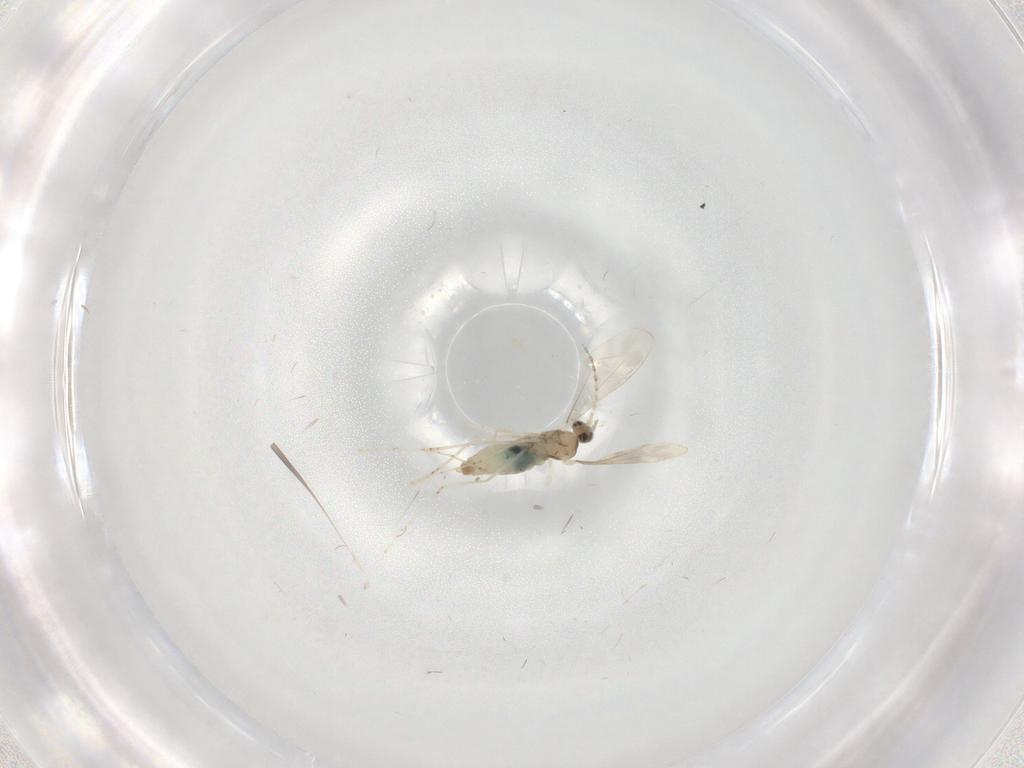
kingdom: Animalia
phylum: Arthropoda
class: Insecta
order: Diptera
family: Cecidomyiidae
